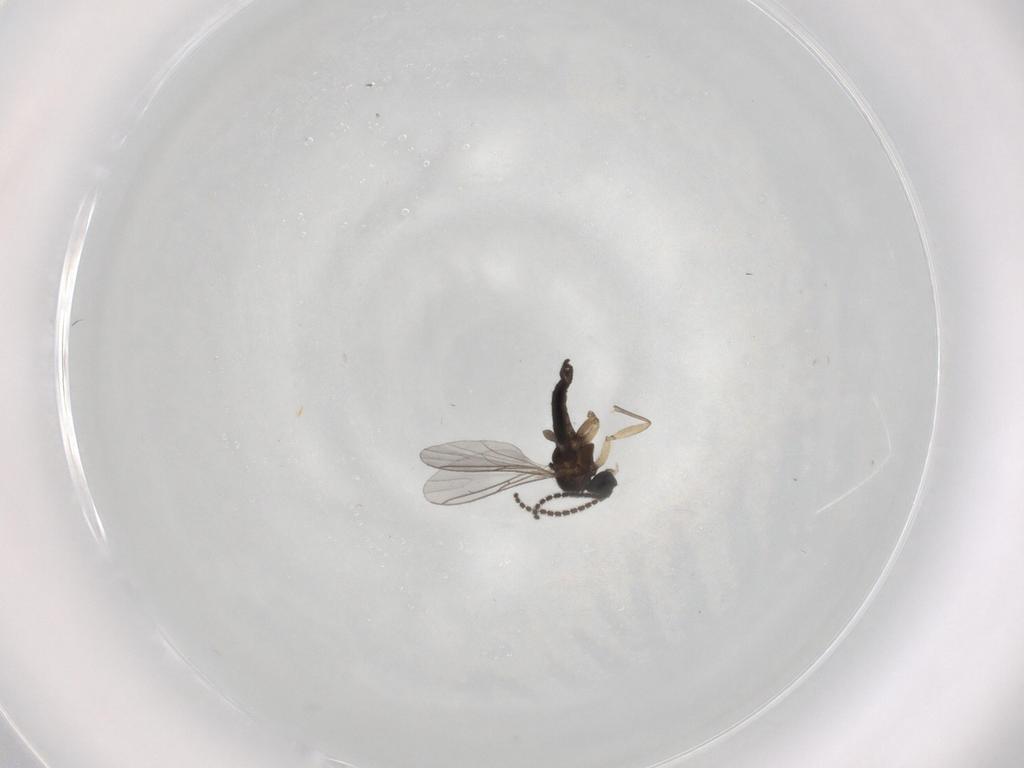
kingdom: Animalia
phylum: Arthropoda
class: Insecta
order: Diptera
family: Sciaridae
